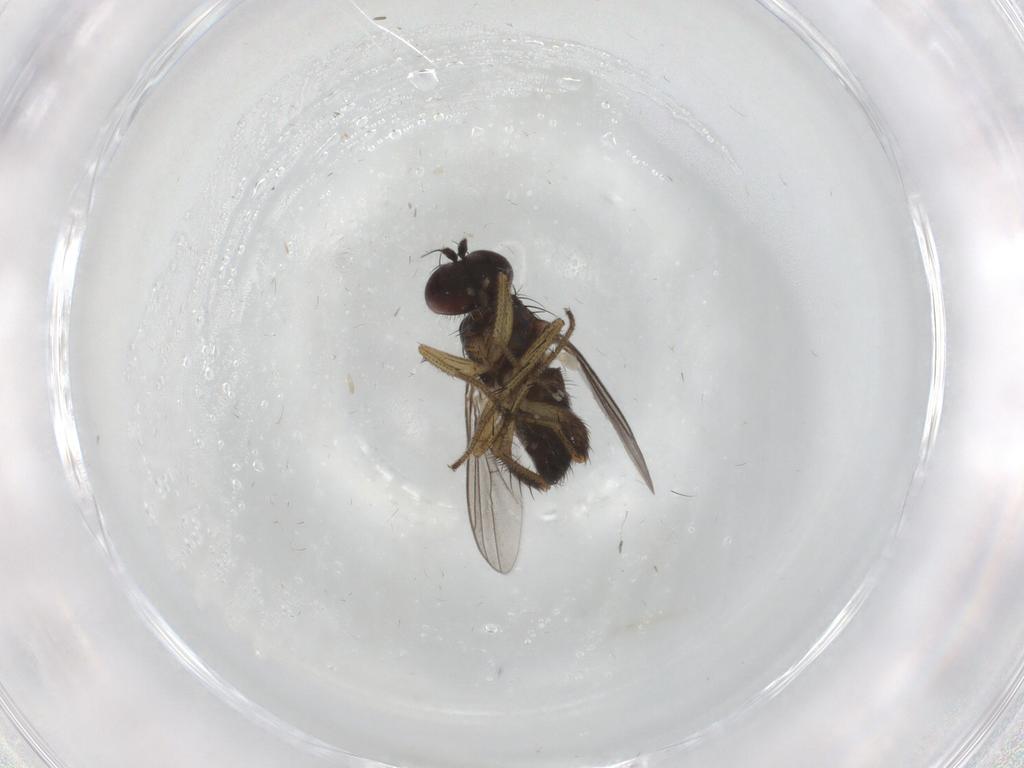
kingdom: Animalia
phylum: Arthropoda
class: Insecta
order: Diptera
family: Dolichopodidae
